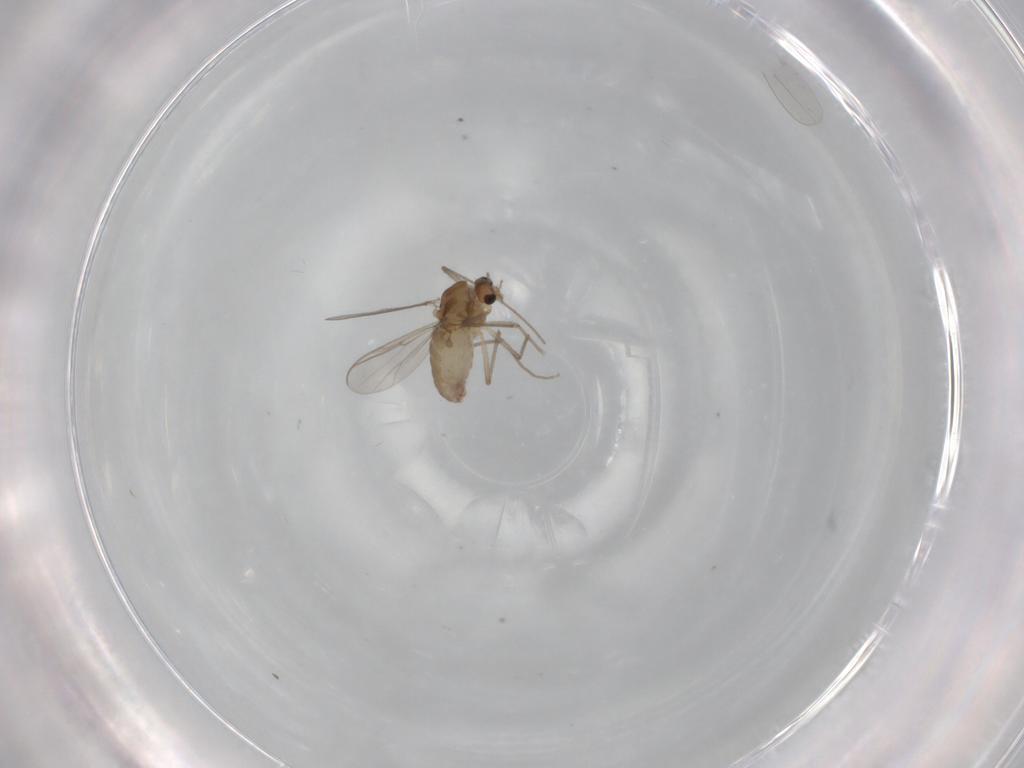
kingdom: Animalia
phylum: Arthropoda
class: Insecta
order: Diptera
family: Chironomidae
